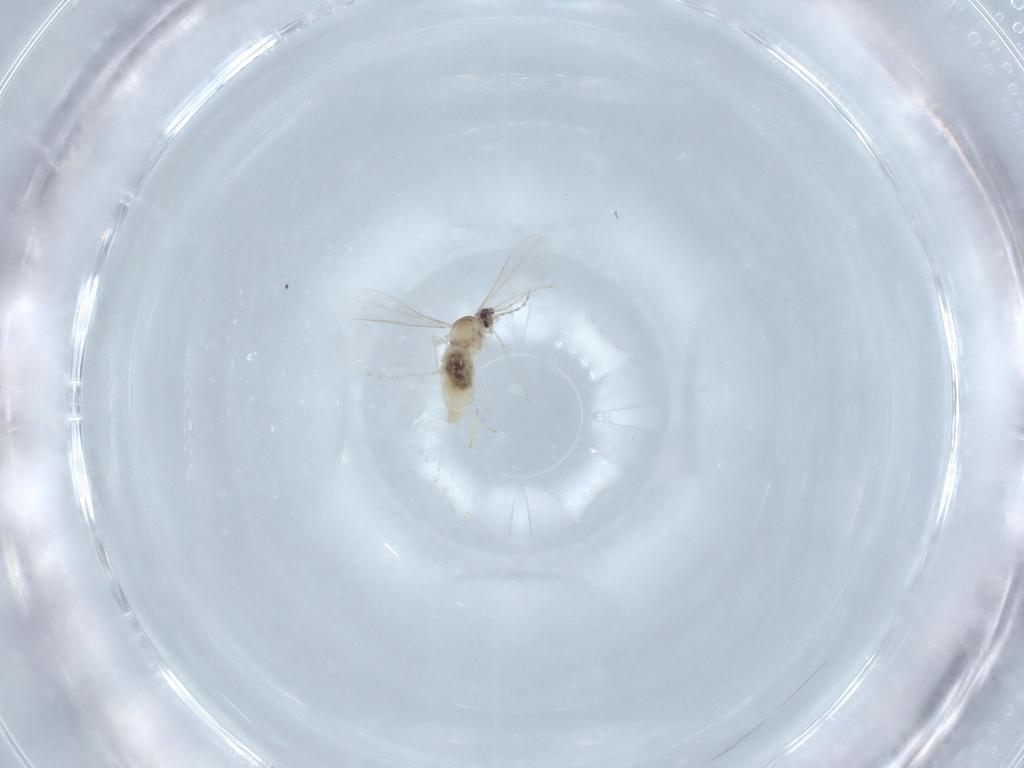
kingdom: Animalia
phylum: Arthropoda
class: Insecta
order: Diptera
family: Cecidomyiidae
